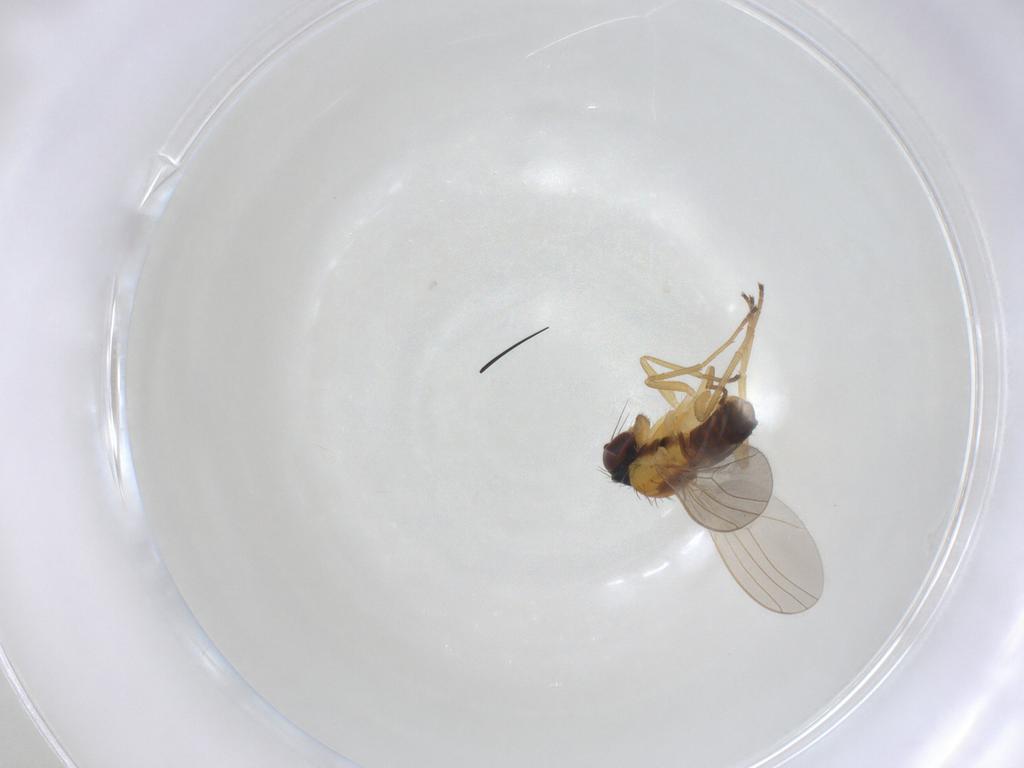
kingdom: Animalia
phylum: Arthropoda
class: Insecta
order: Diptera
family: Dolichopodidae
